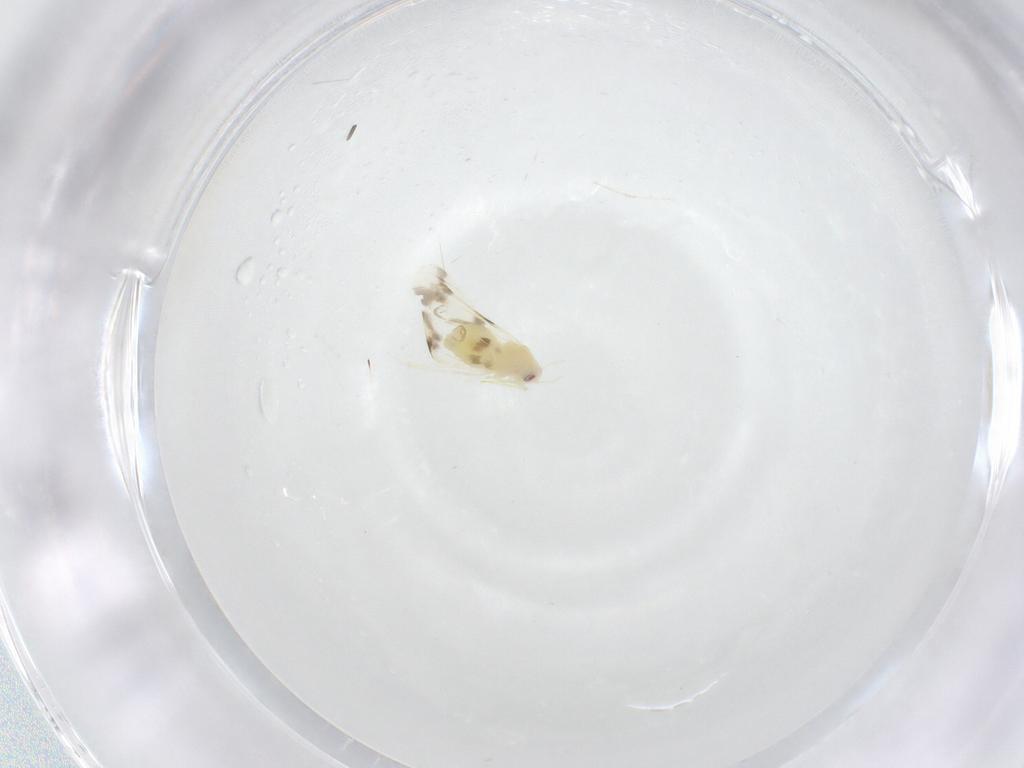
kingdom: Animalia
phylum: Arthropoda
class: Insecta
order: Hemiptera
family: Aleyrodidae
